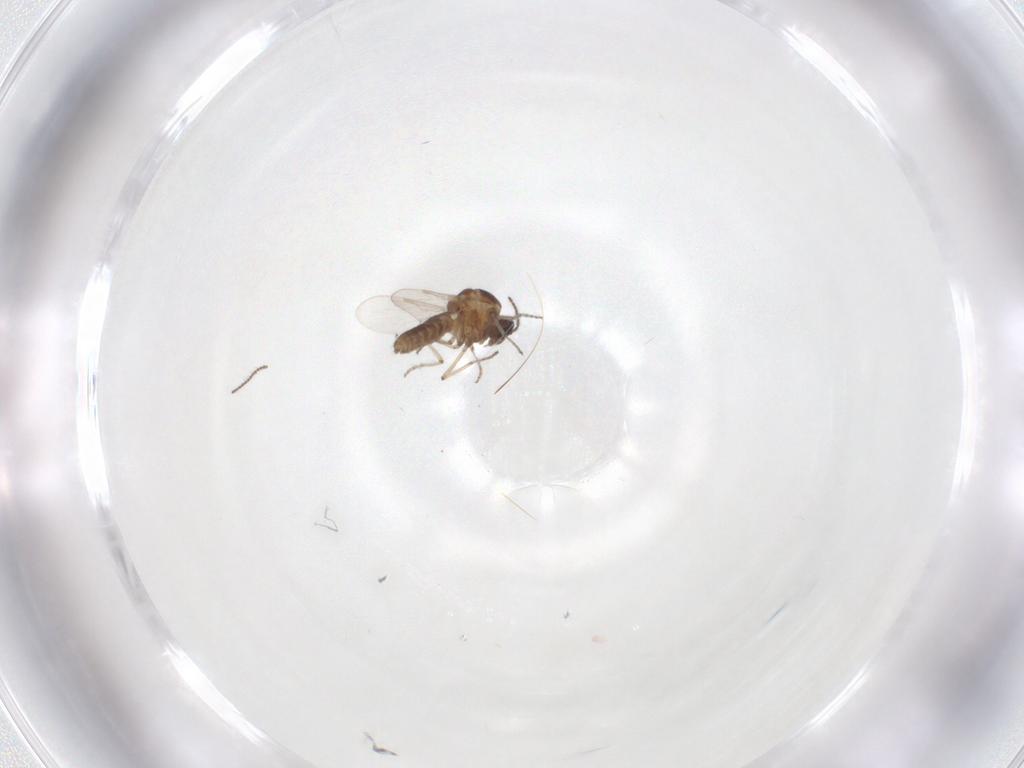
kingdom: Animalia
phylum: Arthropoda
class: Insecta
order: Diptera
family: Ceratopogonidae
